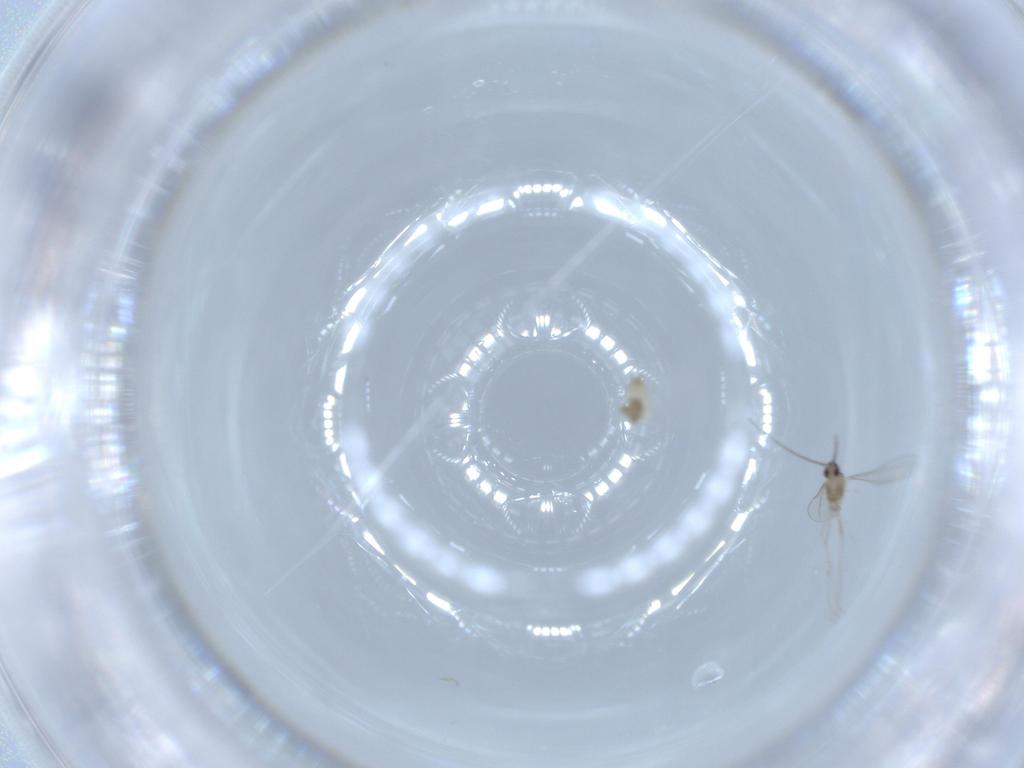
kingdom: Animalia
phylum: Arthropoda
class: Insecta
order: Diptera
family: Cecidomyiidae
